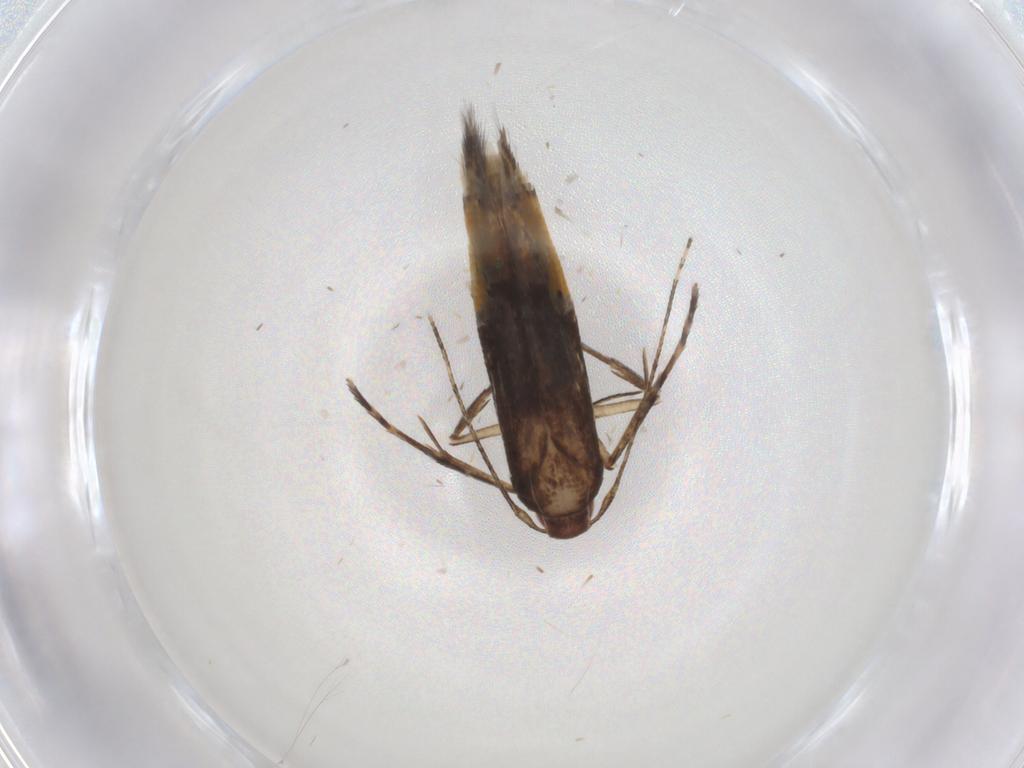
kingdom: Animalia
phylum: Arthropoda
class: Insecta
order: Lepidoptera
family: Cosmopterigidae
